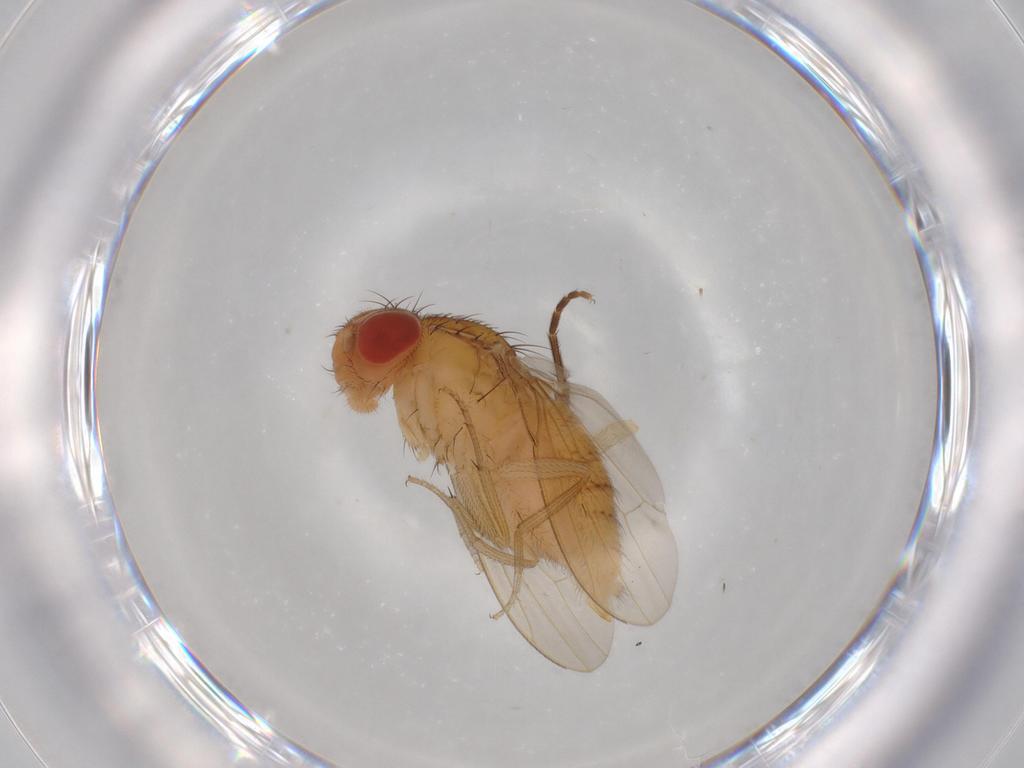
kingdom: Animalia
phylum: Arthropoda
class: Insecta
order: Diptera
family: Drosophilidae
